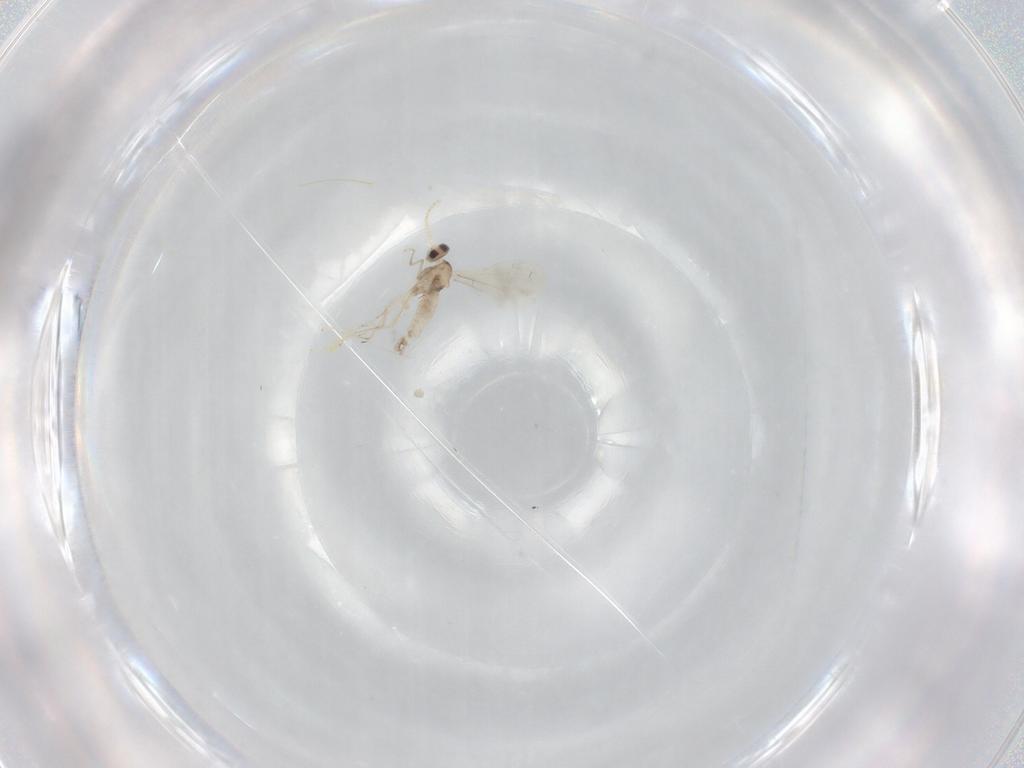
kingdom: Animalia
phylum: Arthropoda
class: Insecta
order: Diptera
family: Cecidomyiidae
